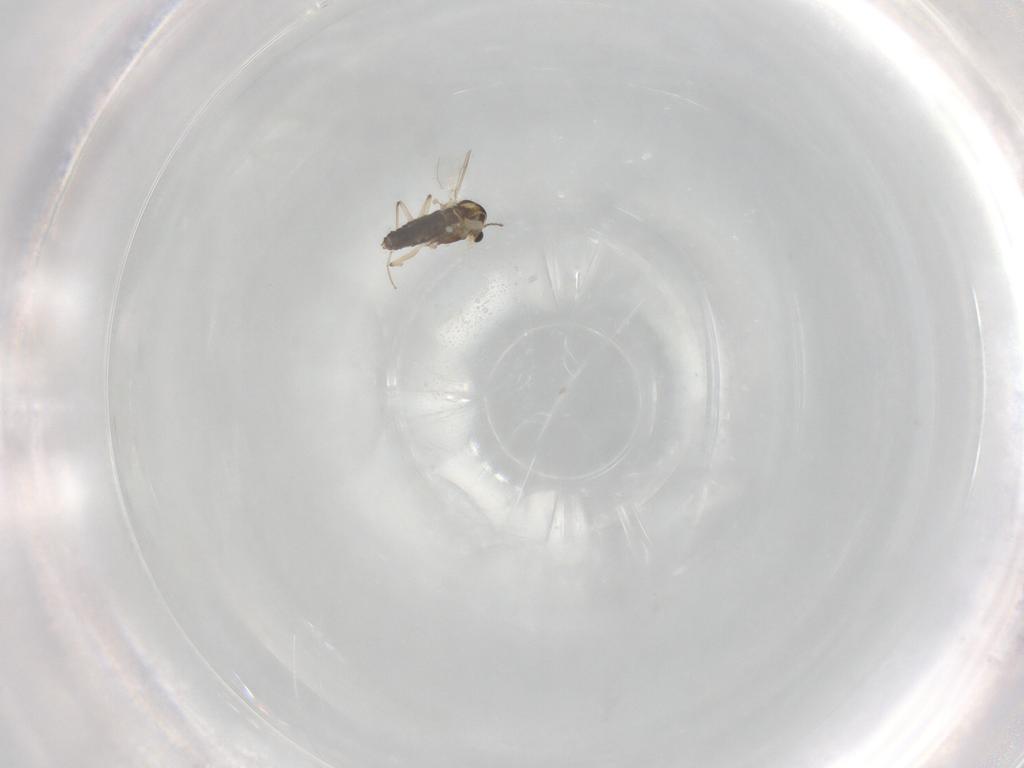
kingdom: Animalia
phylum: Arthropoda
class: Insecta
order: Diptera
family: Chironomidae
